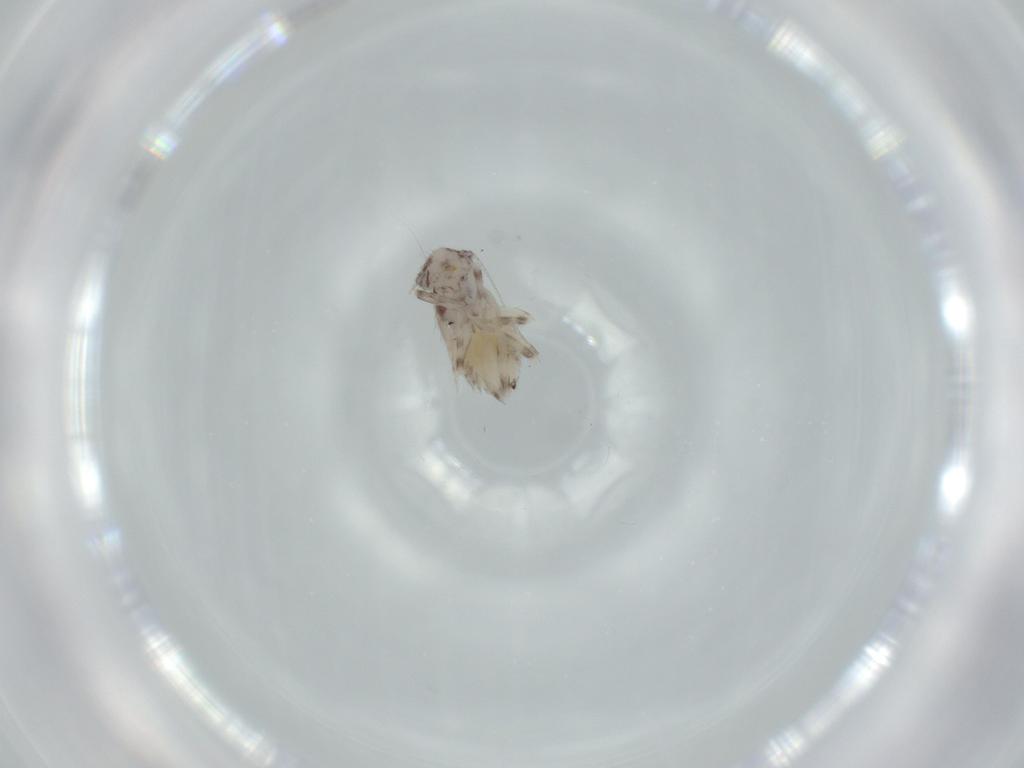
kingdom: Animalia
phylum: Arthropoda
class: Insecta
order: Psocodea
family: Lepidopsocidae
